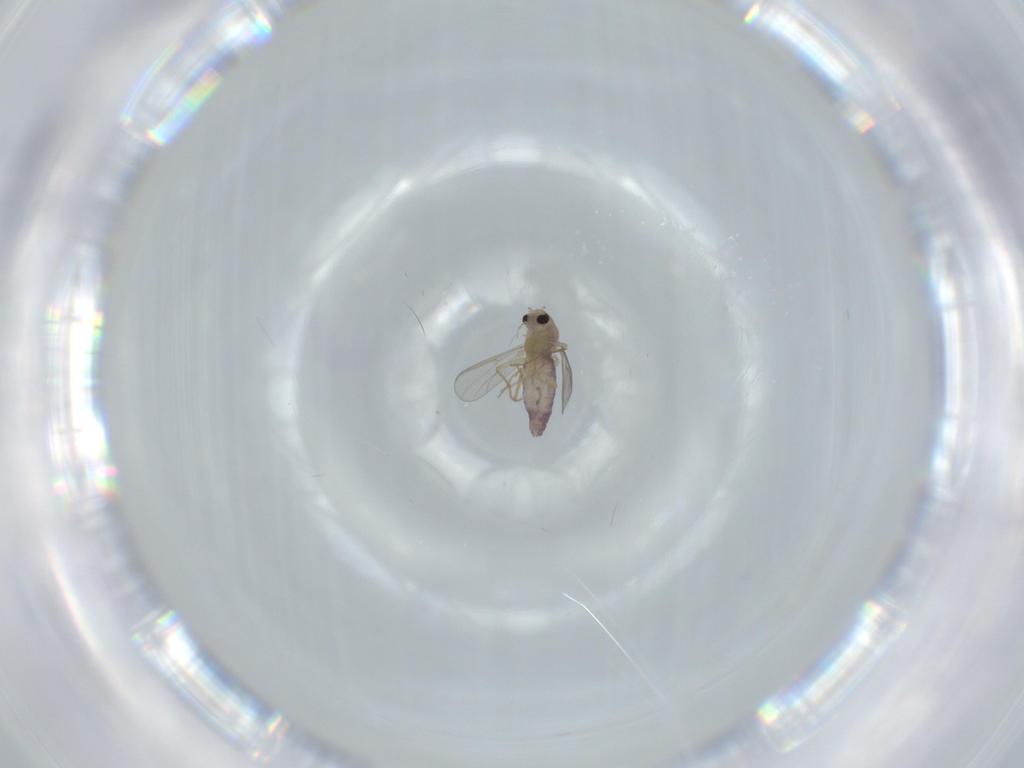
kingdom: Animalia
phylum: Arthropoda
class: Insecta
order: Diptera
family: Chironomidae
